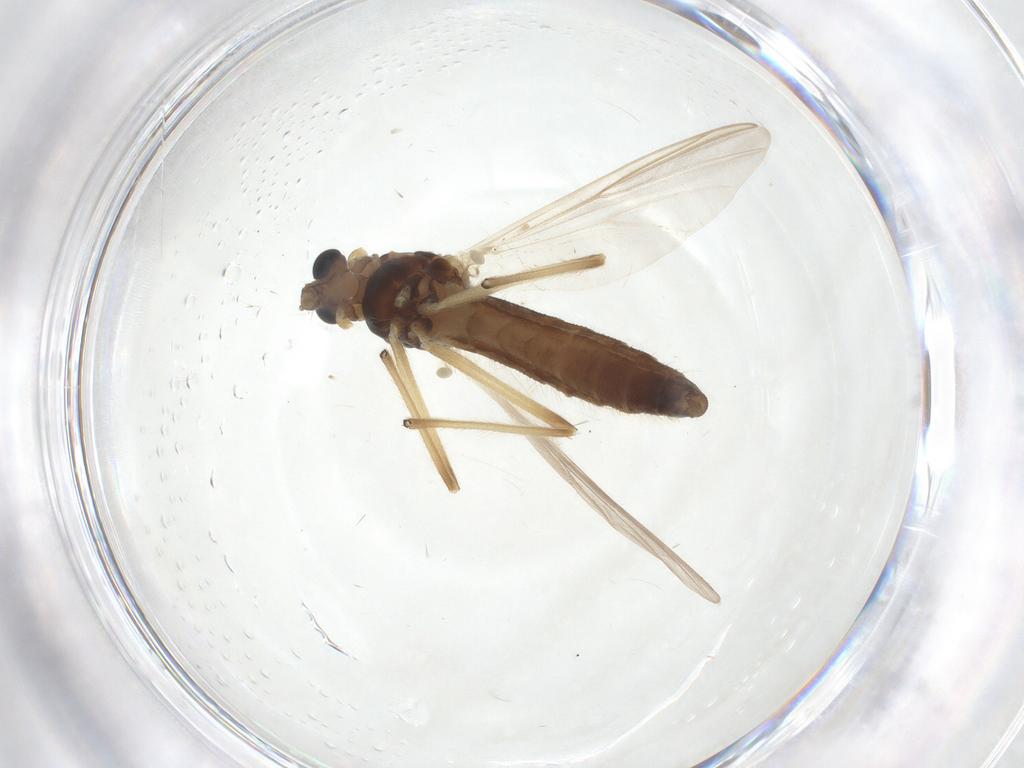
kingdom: Animalia
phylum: Arthropoda
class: Insecta
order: Diptera
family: Chironomidae
